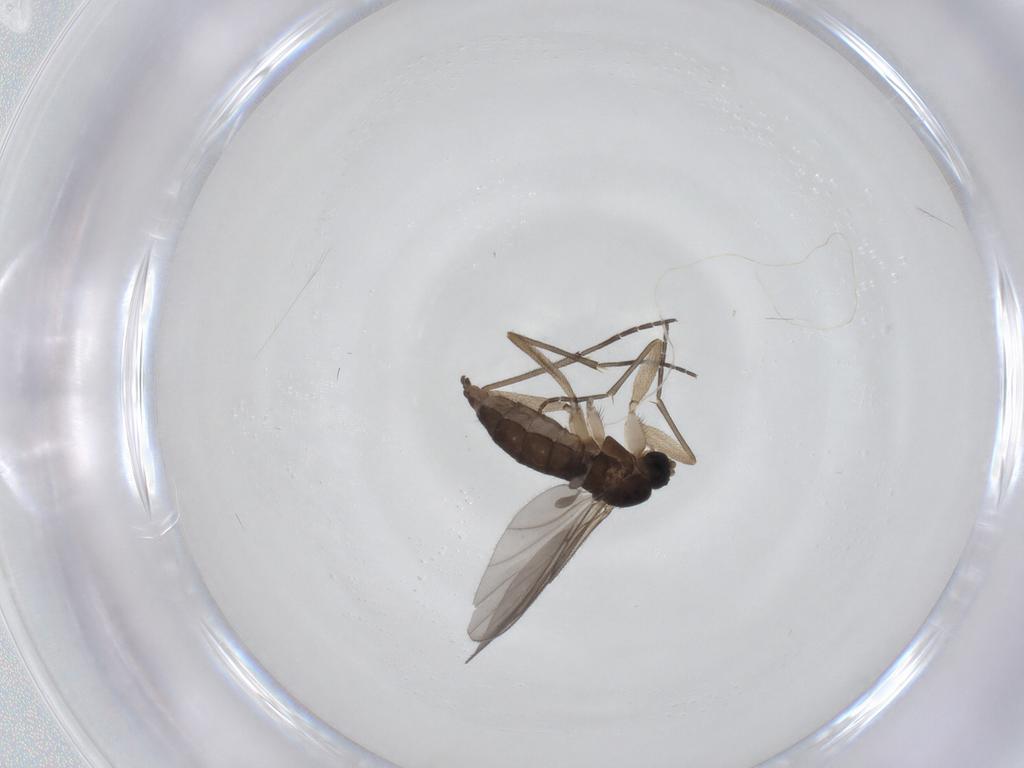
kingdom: Animalia
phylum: Arthropoda
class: Insecta
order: Diptera
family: Sciaridae
